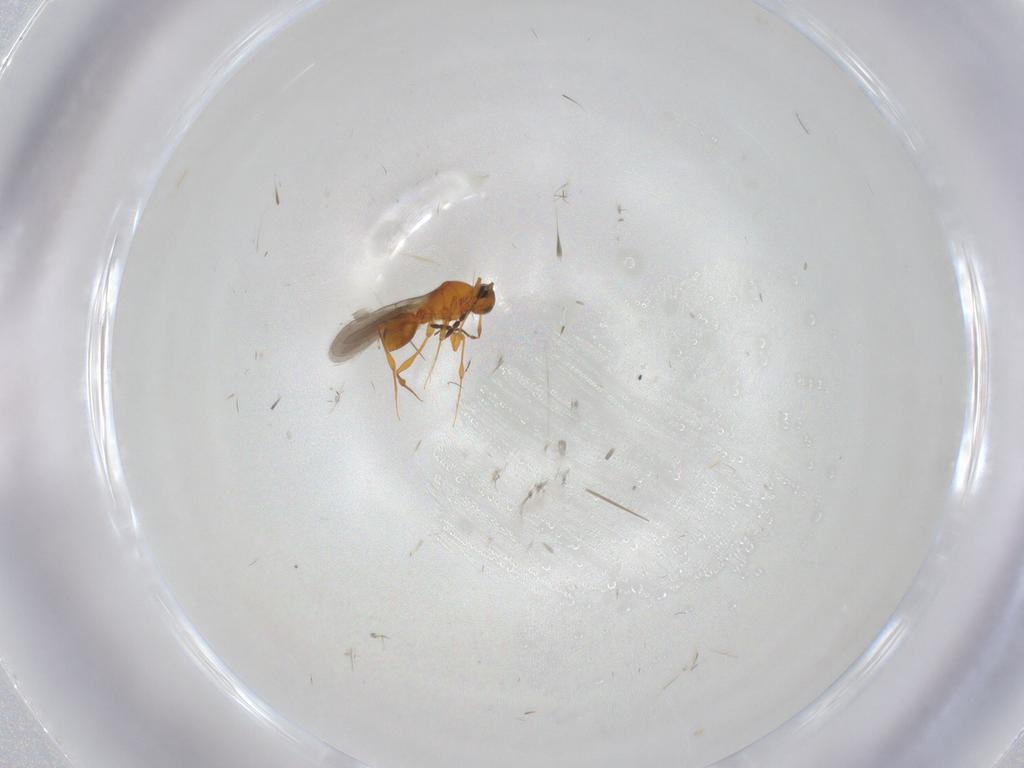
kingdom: Animalia
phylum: Arthropoda
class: Insecta
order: Hymenoptera
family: Platygastridae
